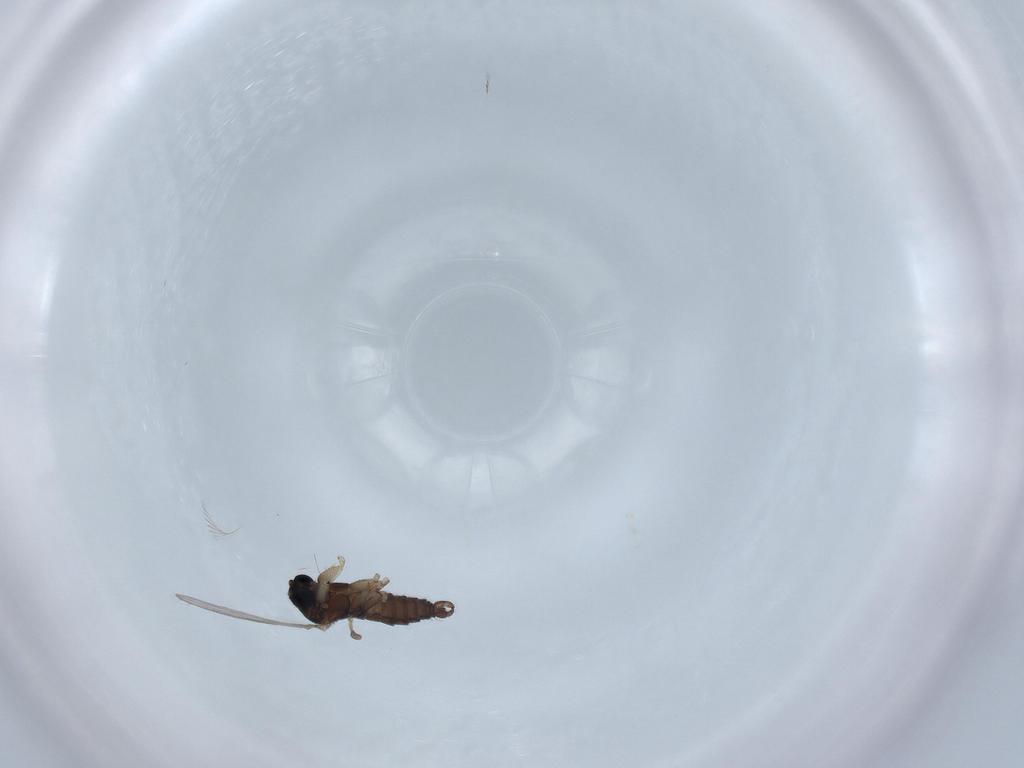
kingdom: Animalia
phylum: Arthropoda
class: Insecta
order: Diptera
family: Sciaridae
